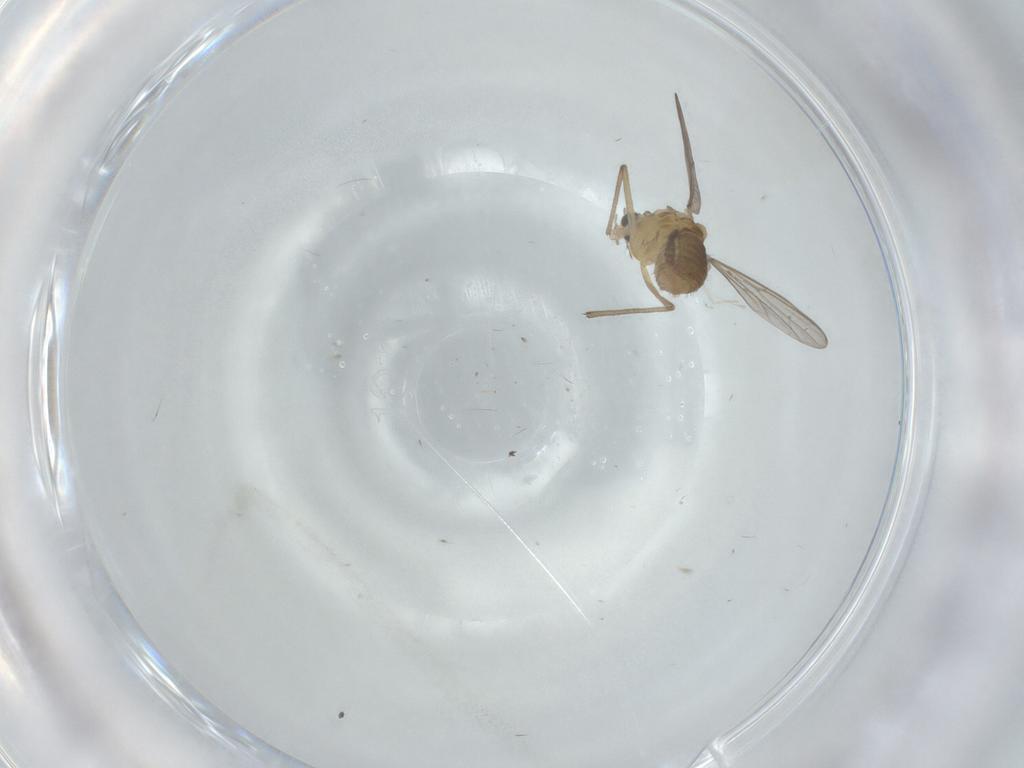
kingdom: Animalia
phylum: Arthropoda
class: Insecta
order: Diptera
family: Chironomidae
